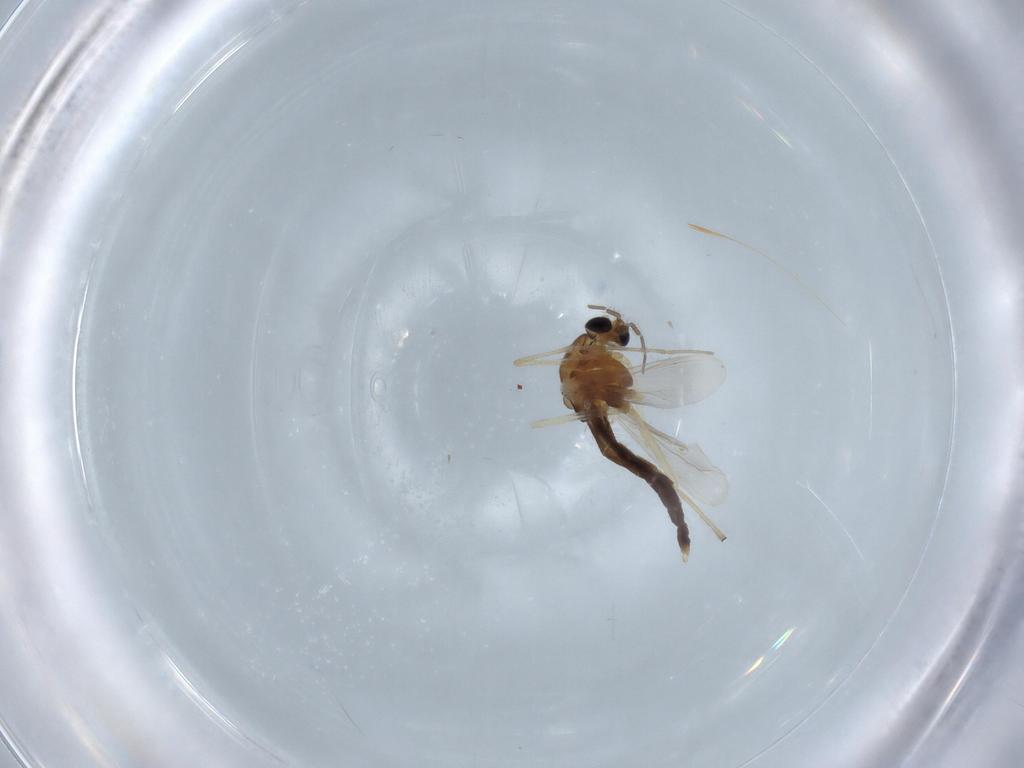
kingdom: Animalia
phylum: Arthropoda
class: Insecta
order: Diptera
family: Chironomidae
